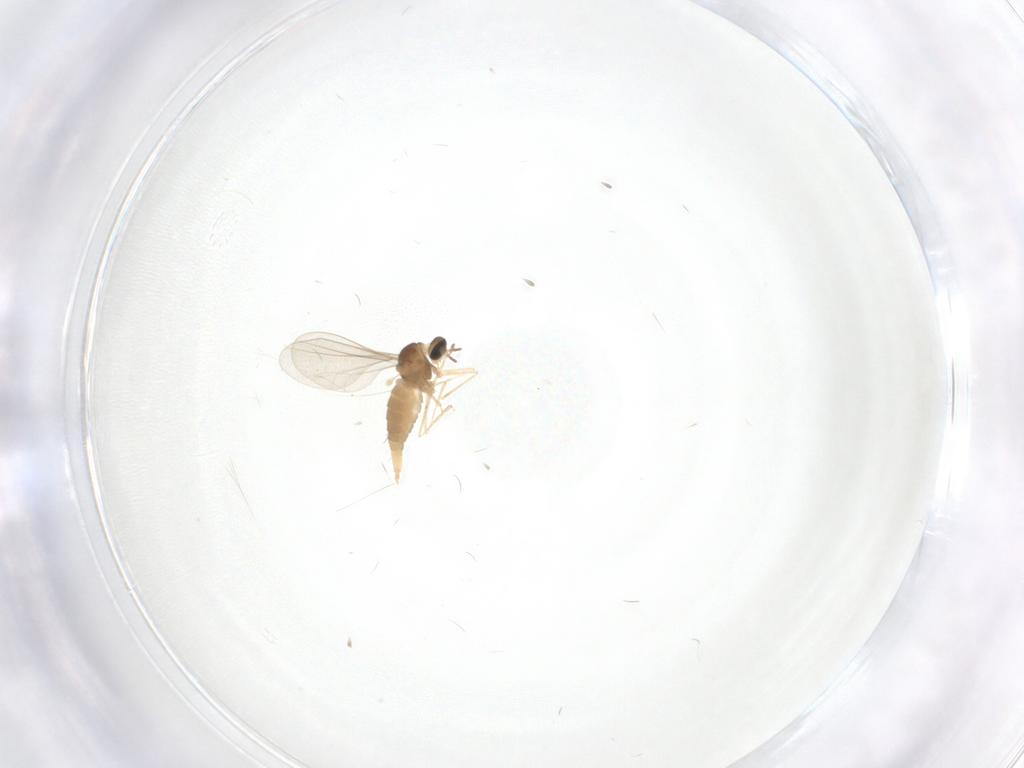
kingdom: Animalia
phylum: Arthropoda
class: Insecta
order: Diptera
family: Cecidomyiidae
